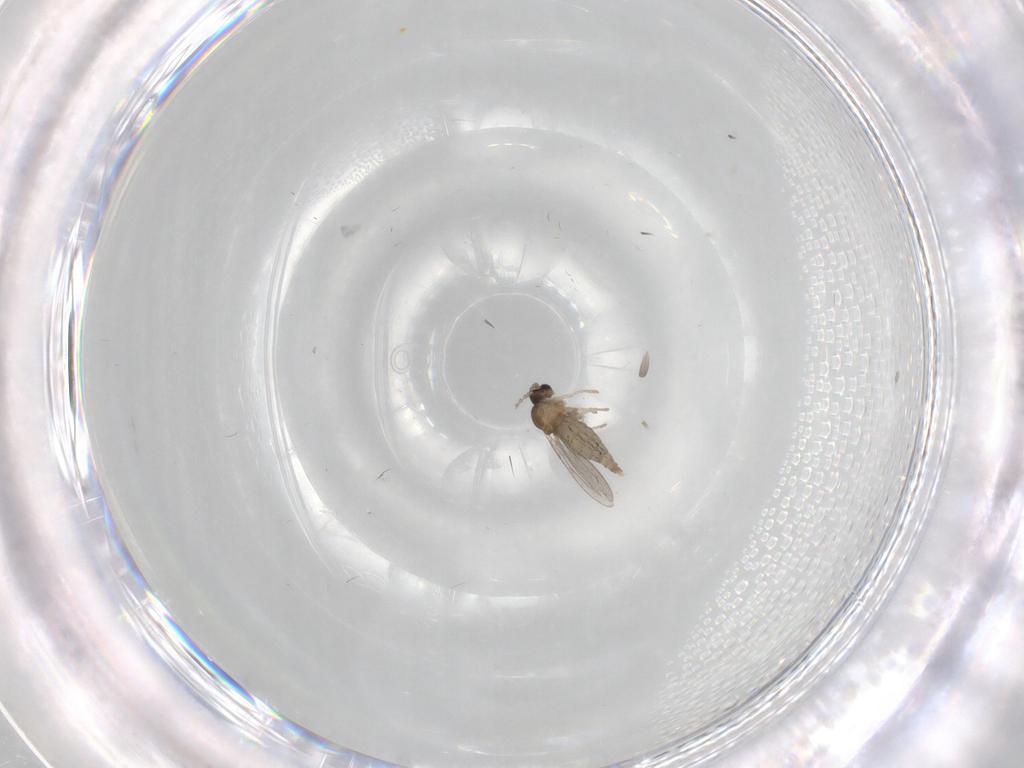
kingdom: Animalia
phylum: Arthropoda
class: Insecta
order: Diptera
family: Cecidomyiidae
